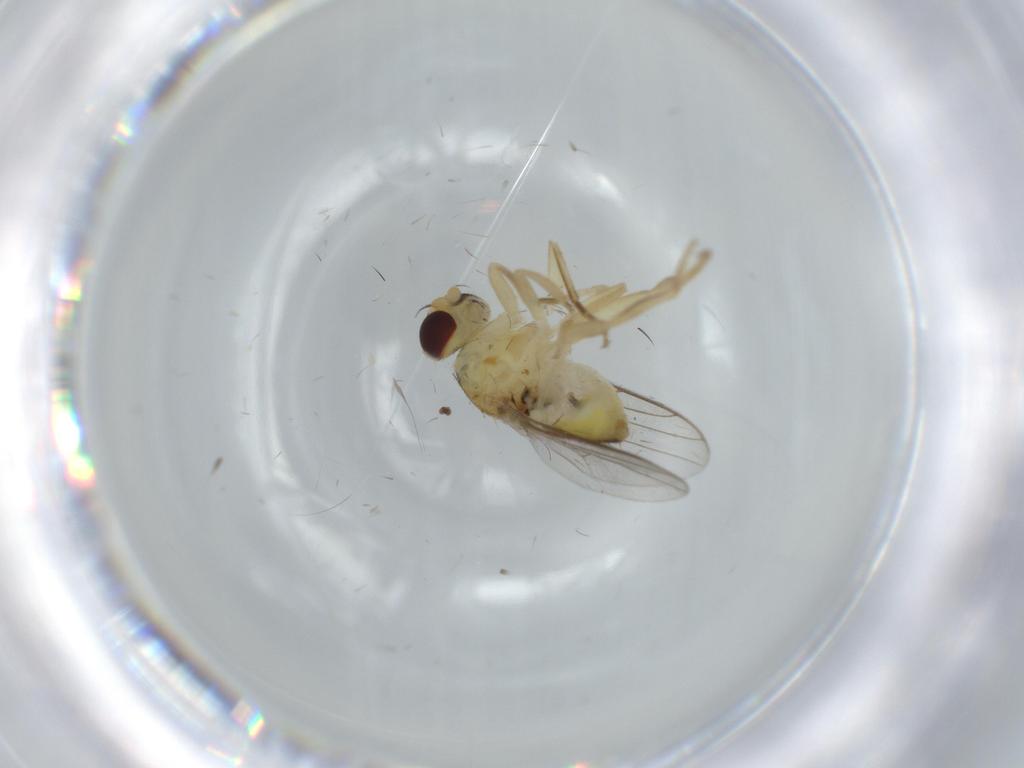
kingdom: Animalia
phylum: Arthropoda
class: Insecta
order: Diptera
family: Chloropidae
